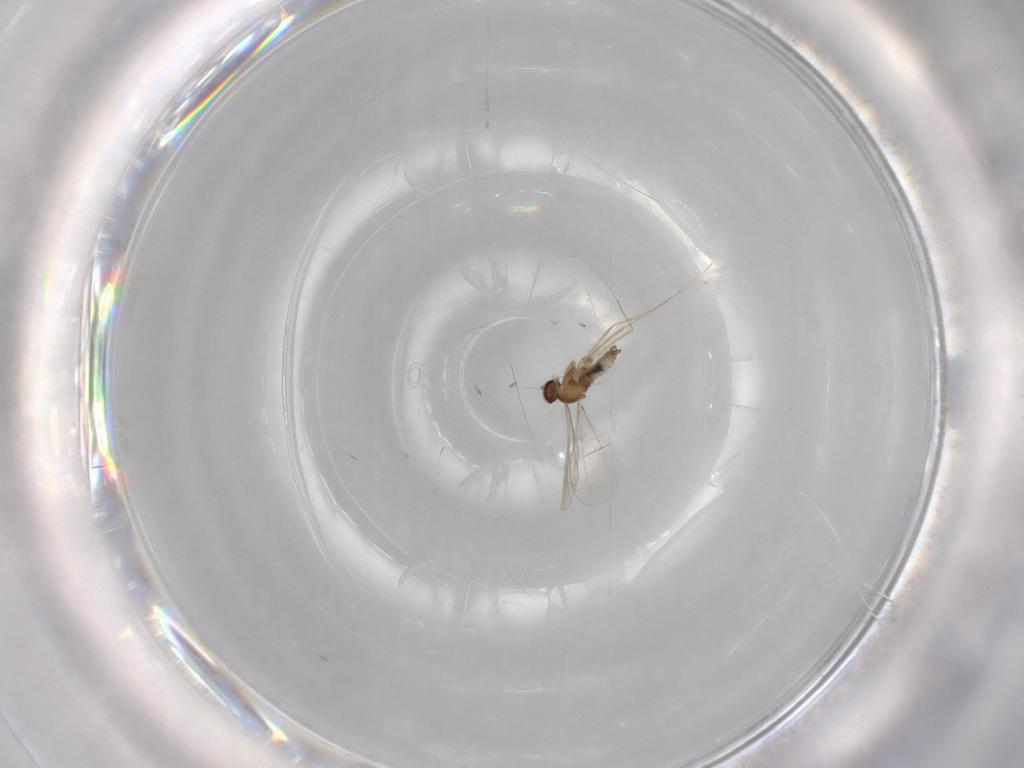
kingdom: Animalia
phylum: Arthropoda
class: Insecta
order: Diptera
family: Cecidomyiidae
